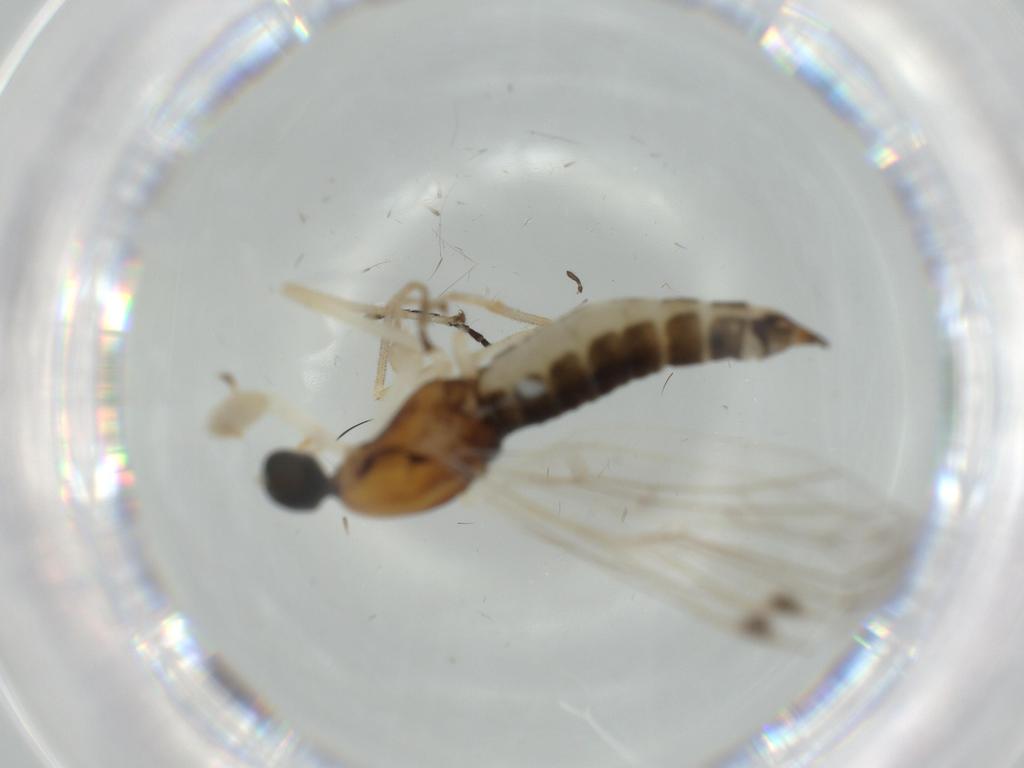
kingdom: Animalia
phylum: Arthropoda
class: Insecta
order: Diptera
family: Empididae
